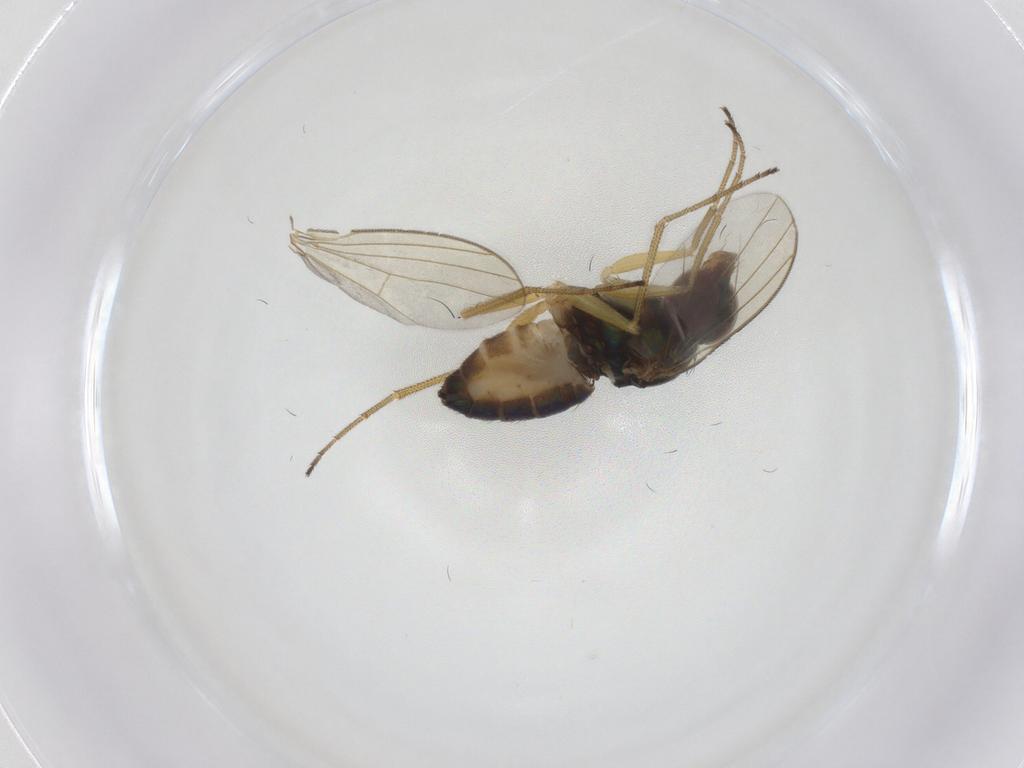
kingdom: Animalia
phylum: Arthropoda
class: Insecta
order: Diptera
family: Dolichopodidae
